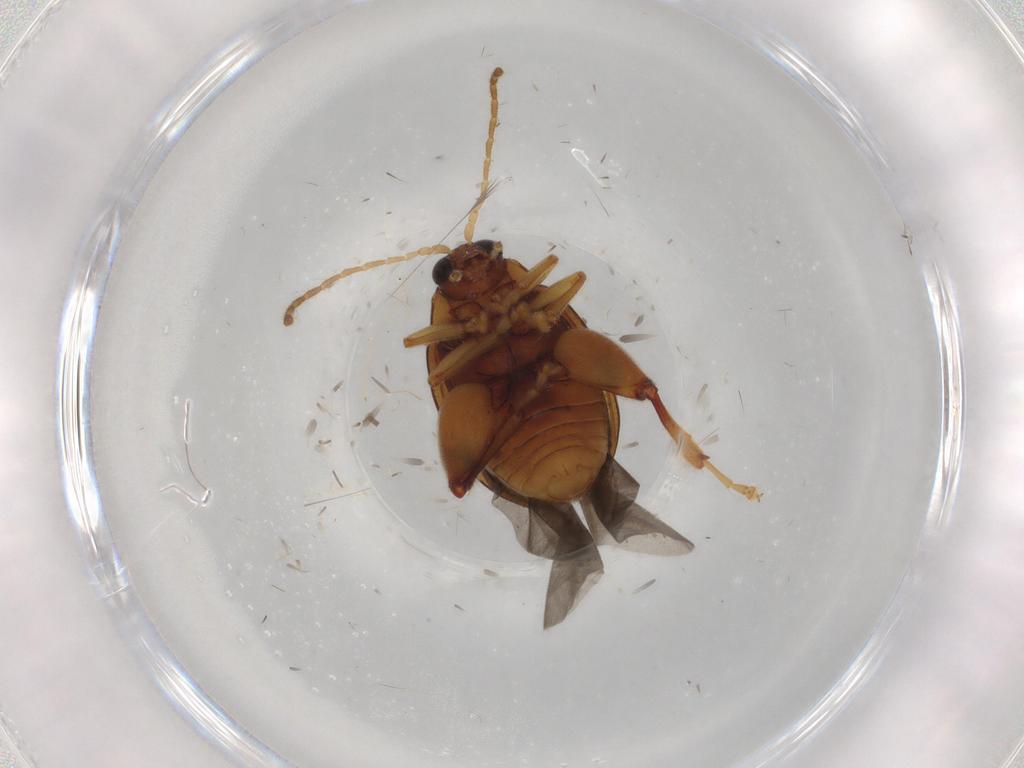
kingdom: Animalia
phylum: Arthropoda
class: Insecta
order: Coleoptera
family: Chrysomelidae
